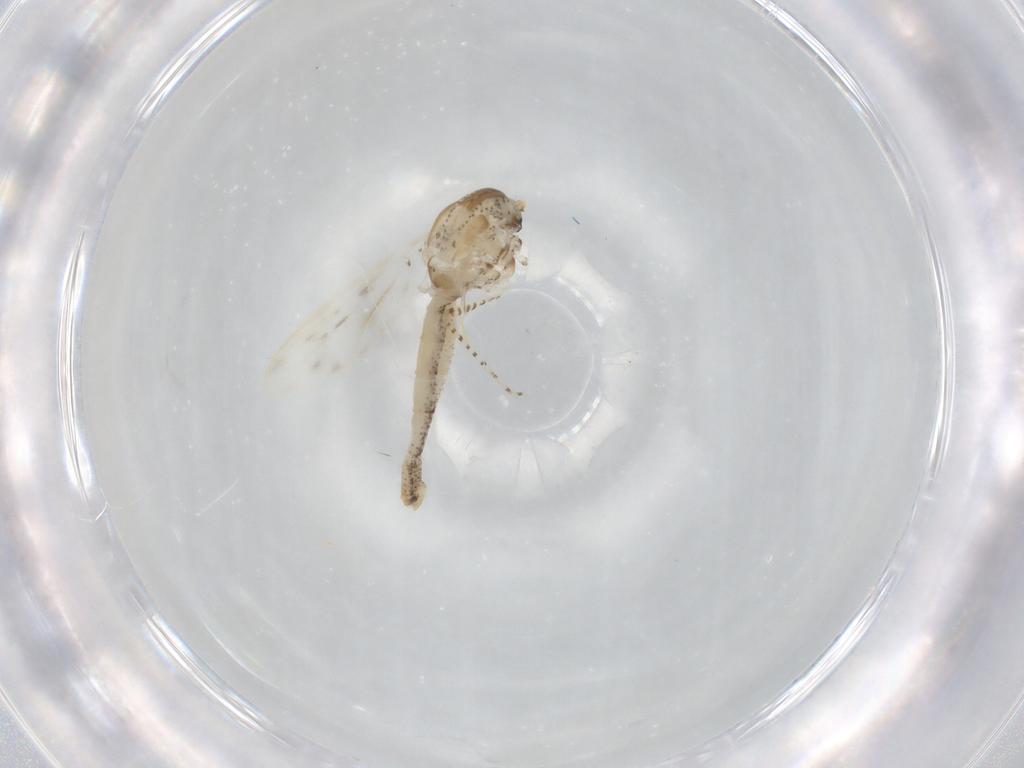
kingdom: Animalia
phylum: Arthropoda
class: Insecta
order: Diptera
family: Chaoboridae
